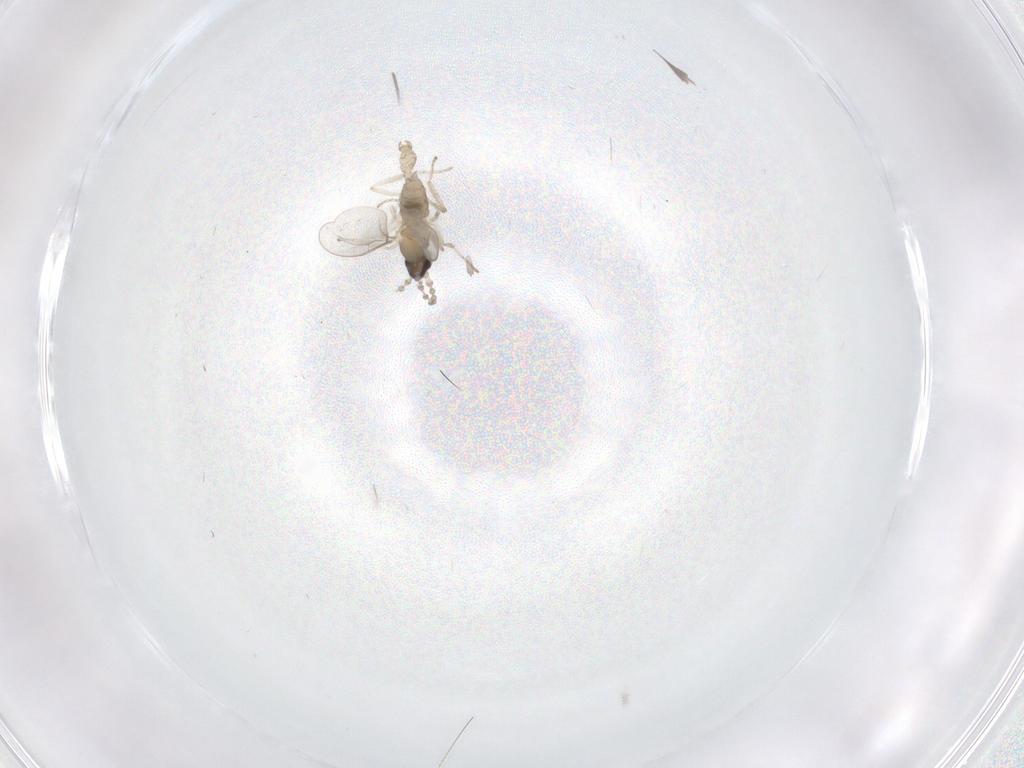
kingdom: Animalia
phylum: Arthropoda
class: Insecta
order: Diptera
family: Cecidomyiidae
